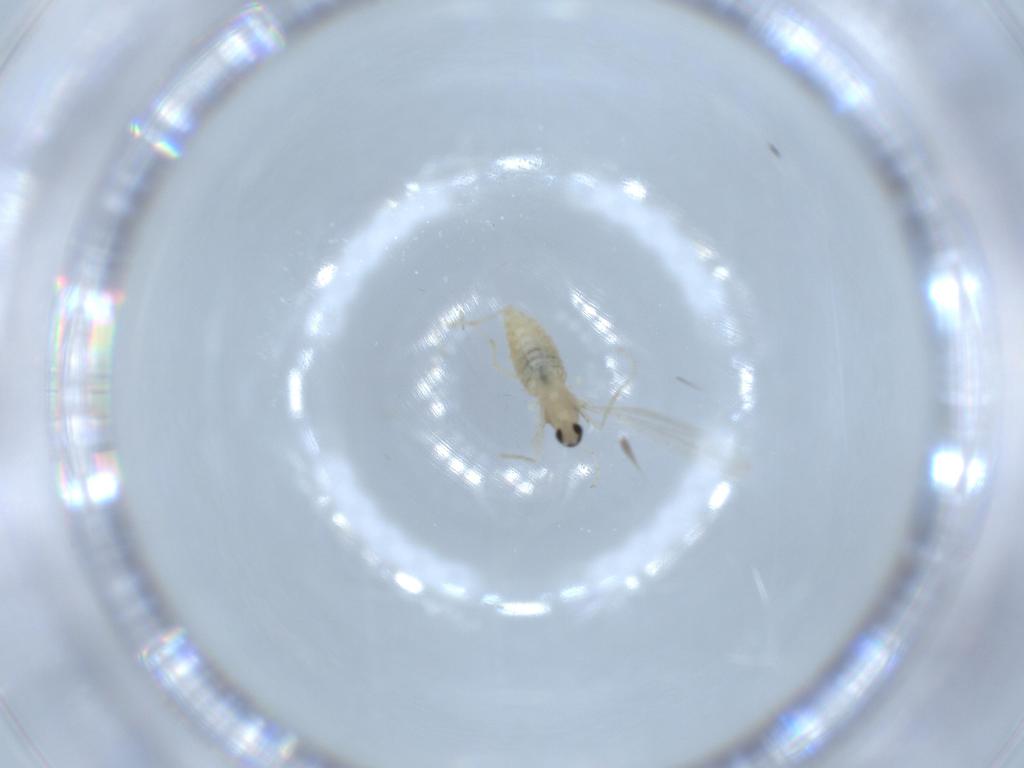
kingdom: Animalia
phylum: Arthropoda
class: Insecta
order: Diptera
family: Cecidomyiidae
